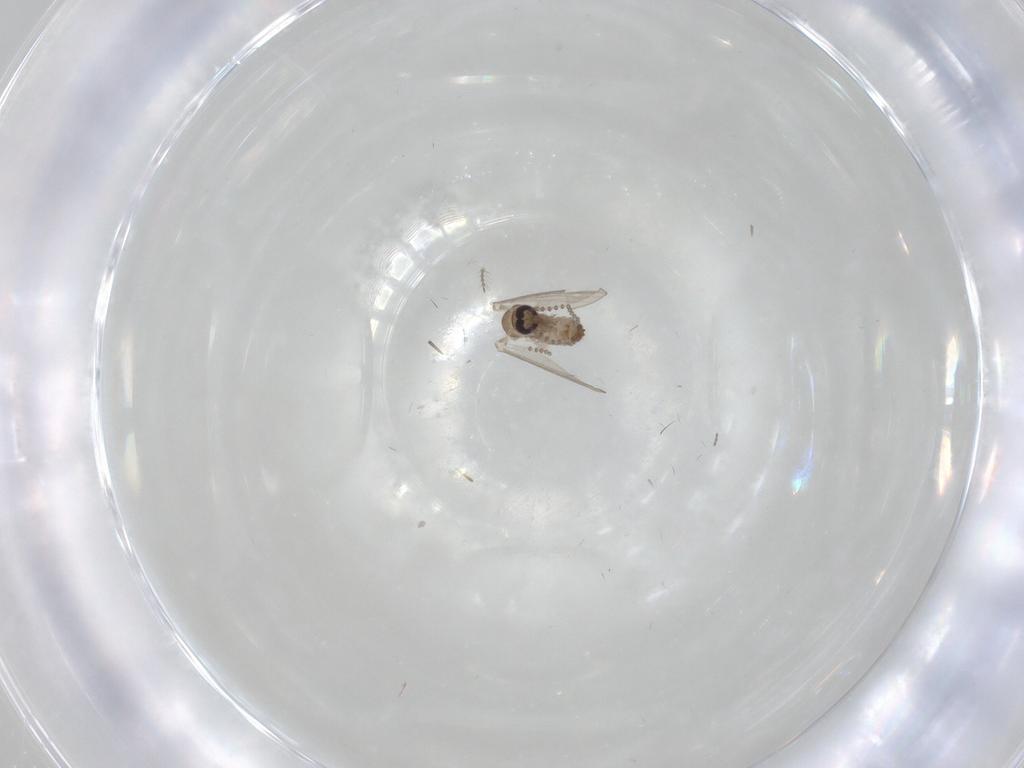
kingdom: Animalia
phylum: Arthropoda
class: Insecta
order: Diptera
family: Psychodidae
